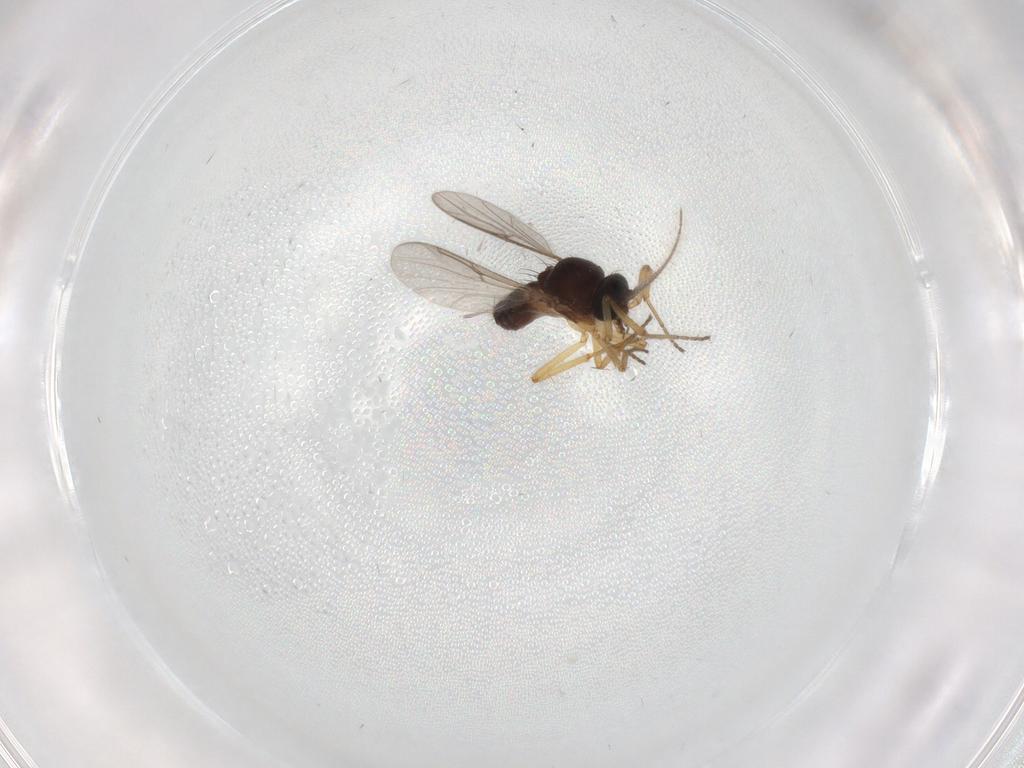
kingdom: Animalia
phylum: Arthropoda
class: Insecta
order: Diptera
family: Ceratopogonidae
